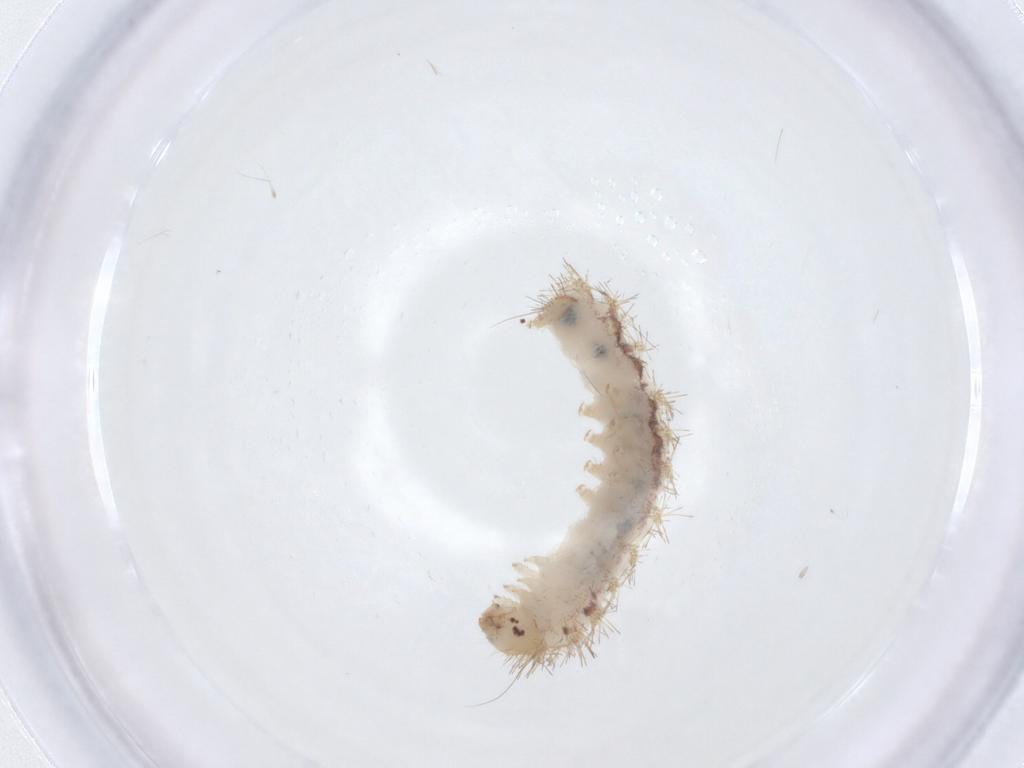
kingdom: Animalia
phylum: Arthropoda
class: Insecta
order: Lepidoptera
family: Erebidae
